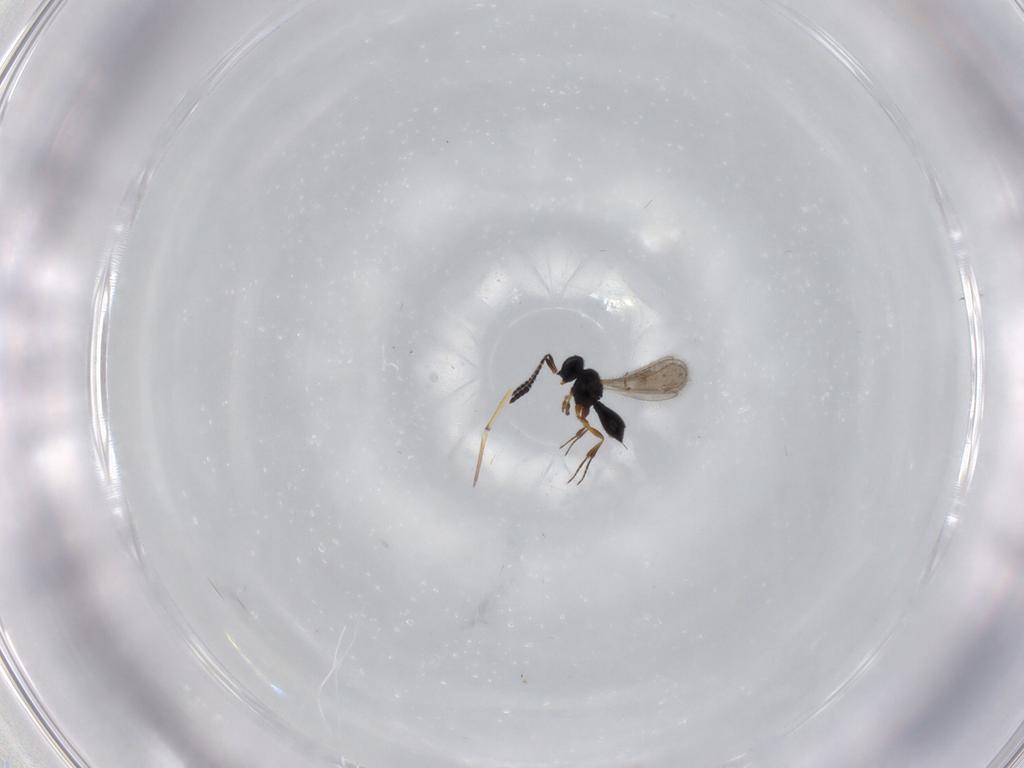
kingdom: Animalia
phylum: Arthropoda
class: Insecta
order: Hymenoptera
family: Scelionidae
